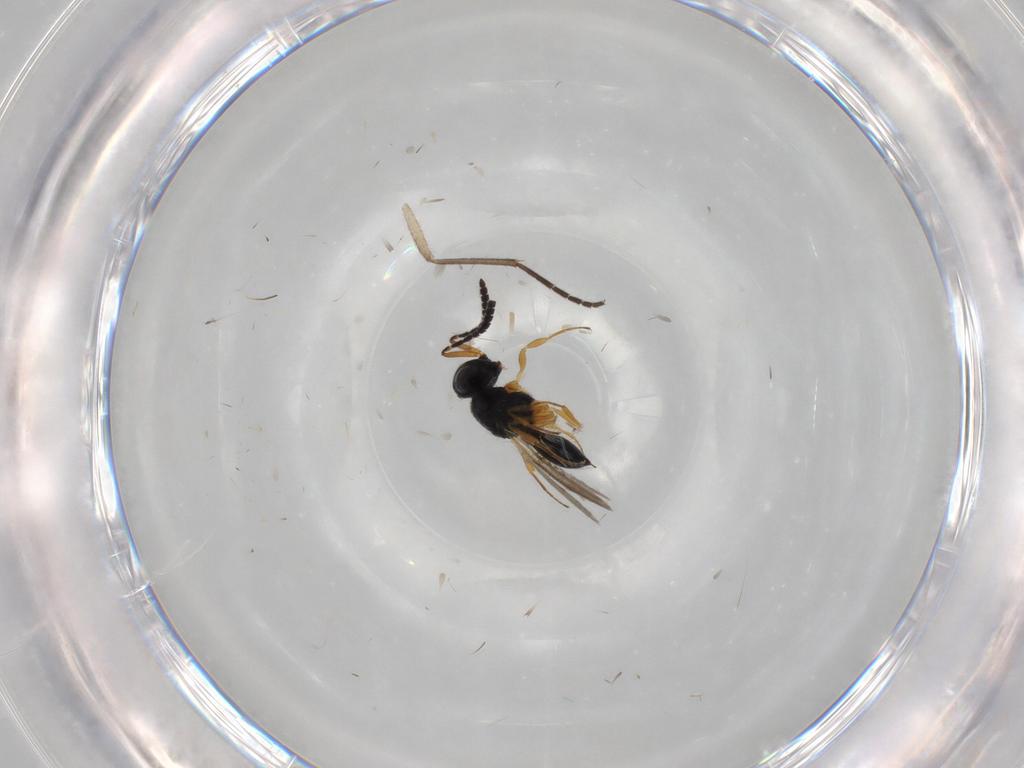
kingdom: Animalia
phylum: Arthropoda
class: Insecta
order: Hymenoptera
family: Scelionidae
